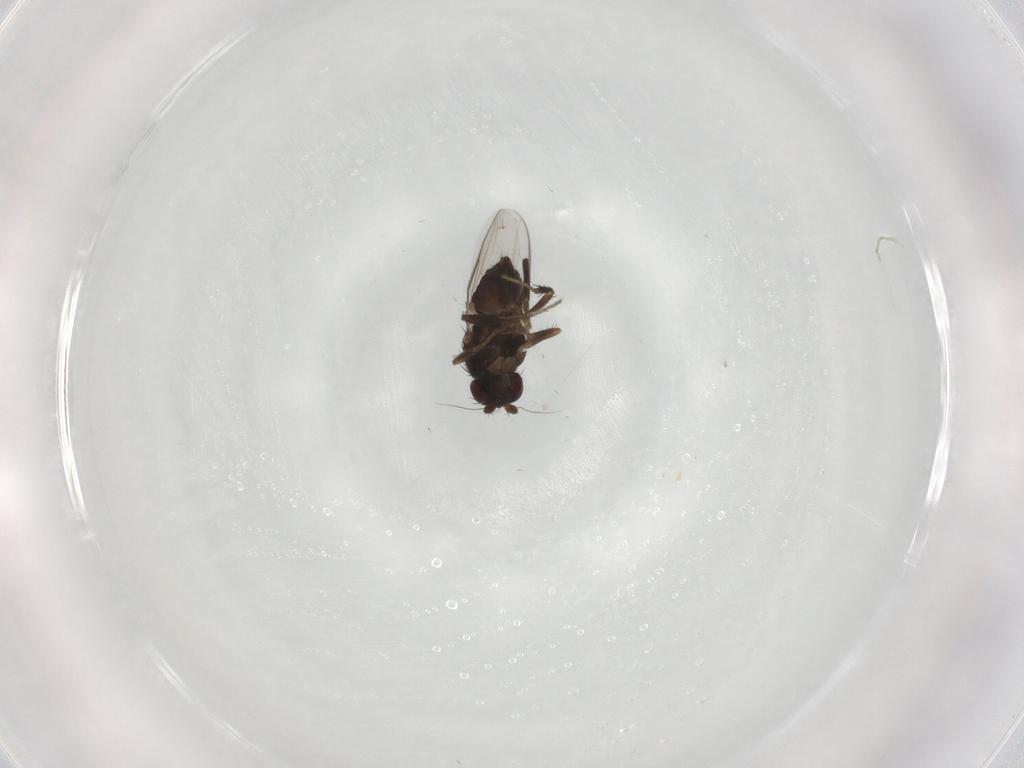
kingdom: Animalia
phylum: Arthropoda
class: Insecta
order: Diptera
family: Sphaeroceridae
